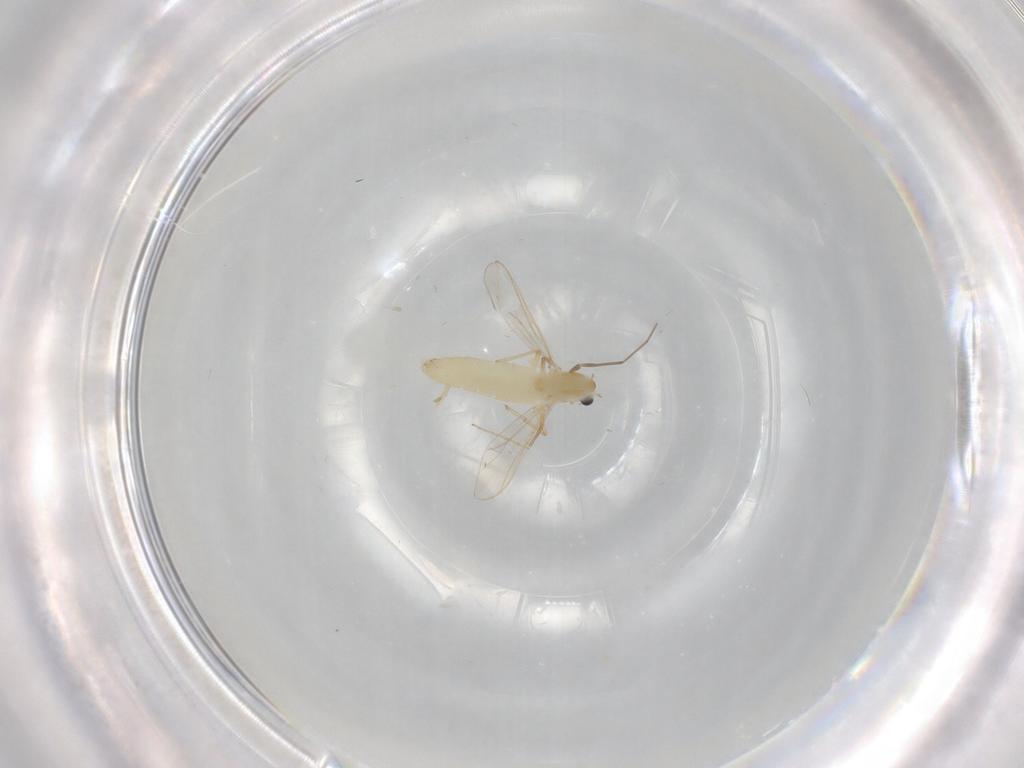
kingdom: Animalia
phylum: Arthropoda
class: Insecta
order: Diptera
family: Chironomidae
